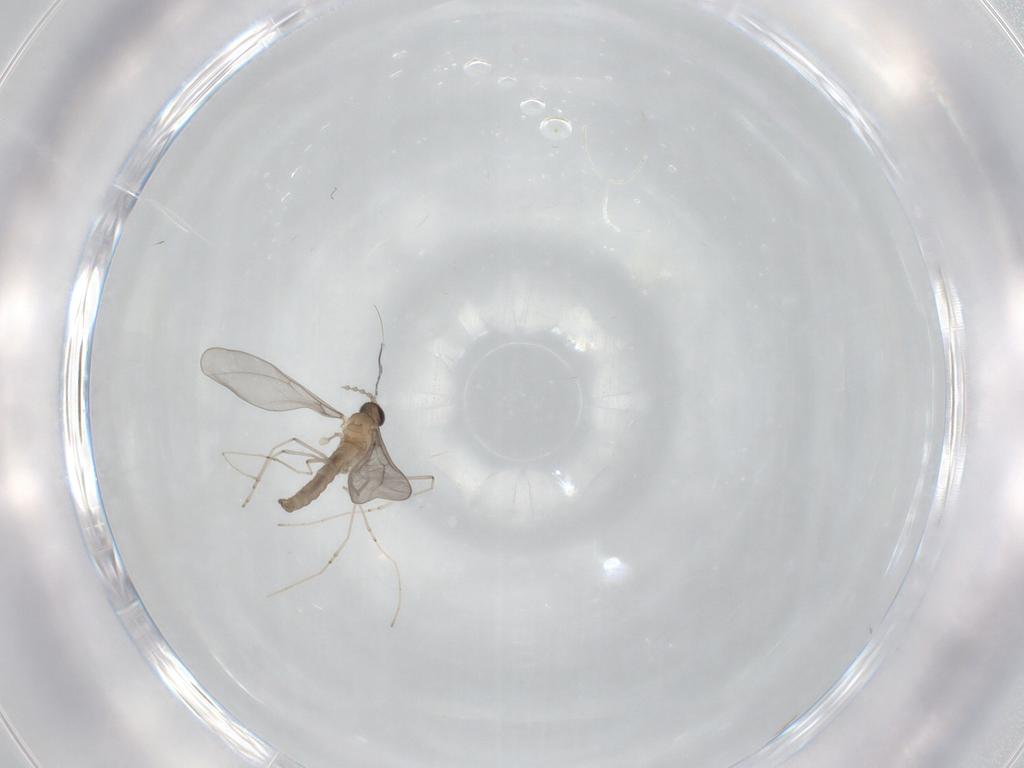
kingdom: Animalia
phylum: Arthropoda
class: Insecta
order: Diptera
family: Cecidomyiidae
